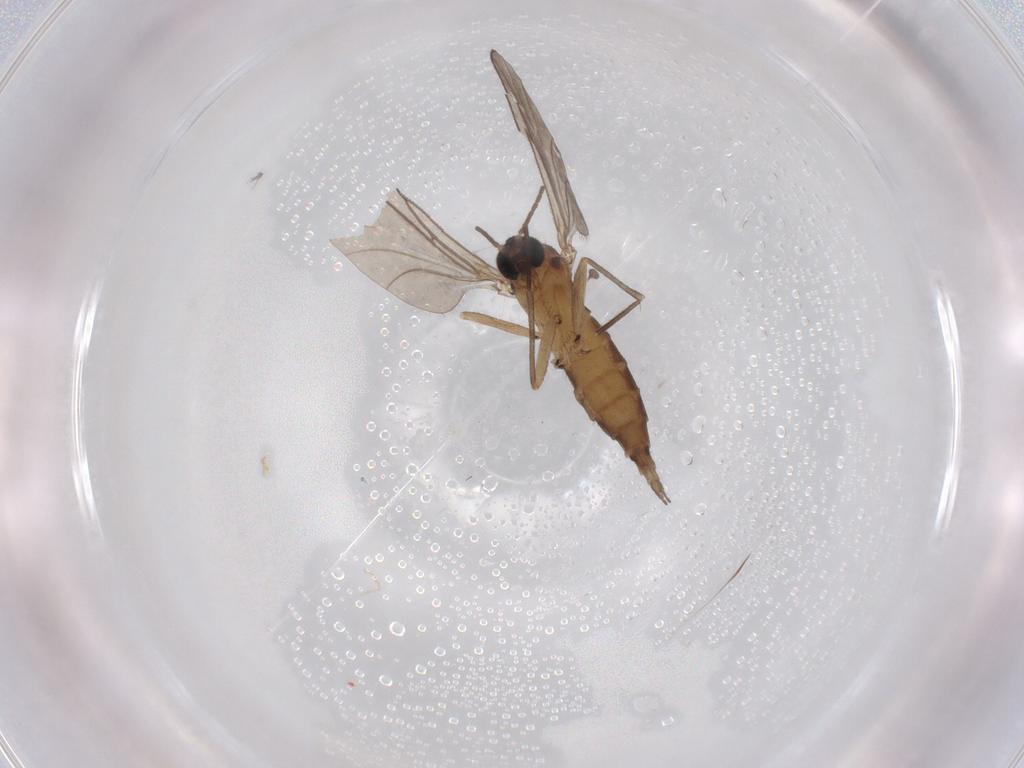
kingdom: Animalia
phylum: Arthropoda
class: Insecta
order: Diptera
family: Sciaridae
